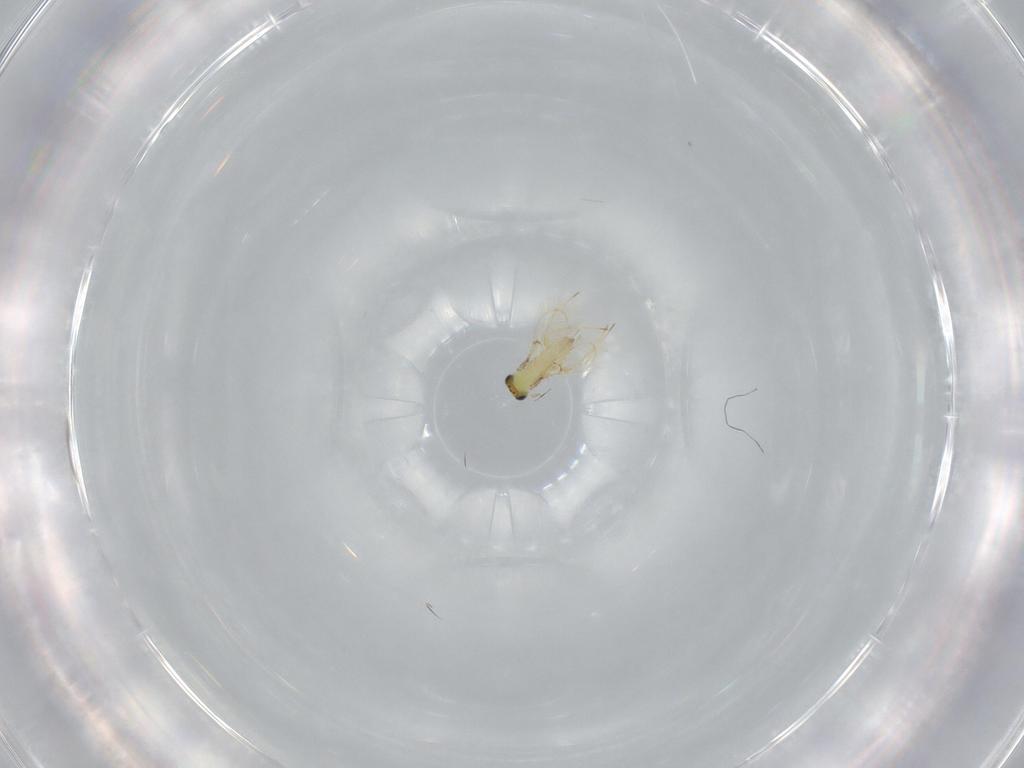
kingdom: Animalia
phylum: Arthropoda
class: Insecta
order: Hymenoptera
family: Trichogrammatidae
